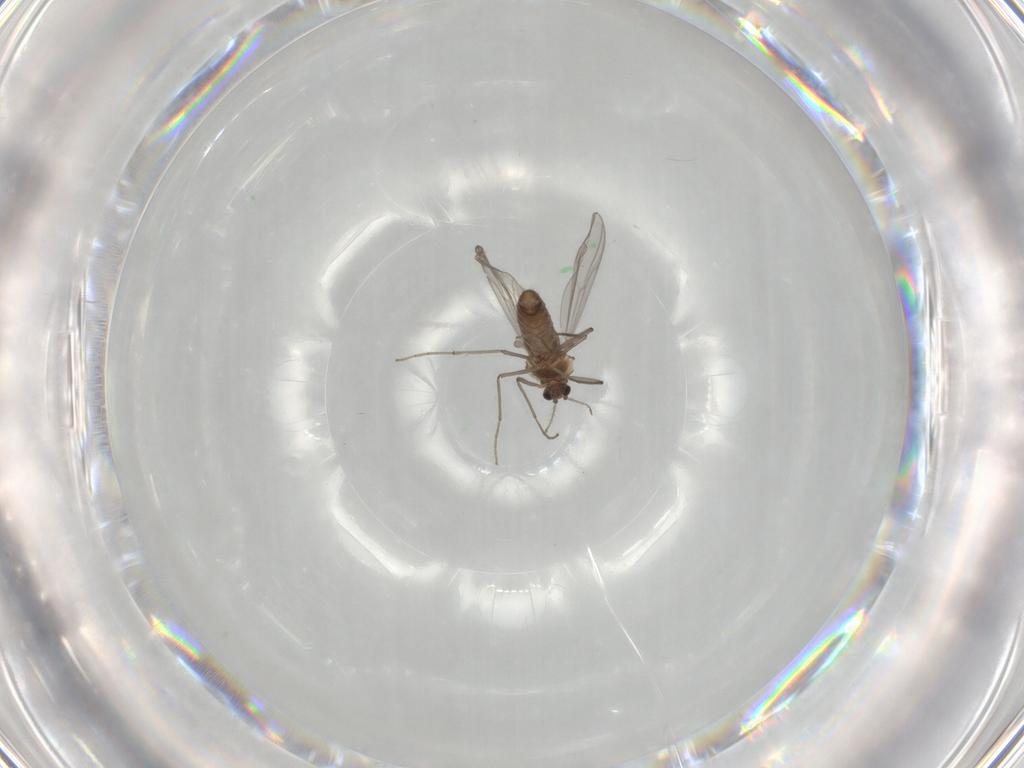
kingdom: Animalia
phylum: Arthropoda
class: Insecta
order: Diptera
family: Chironomidae
